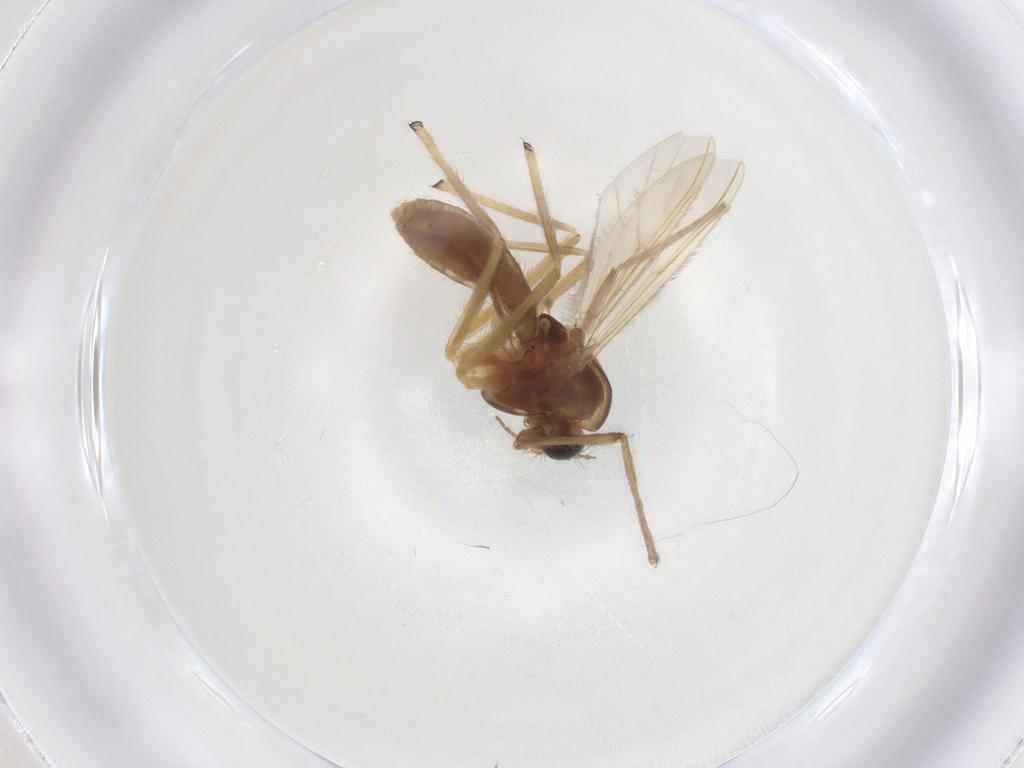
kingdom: Animalia
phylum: Arthropoda
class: Insecta
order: Diptera
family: Chironomidae
